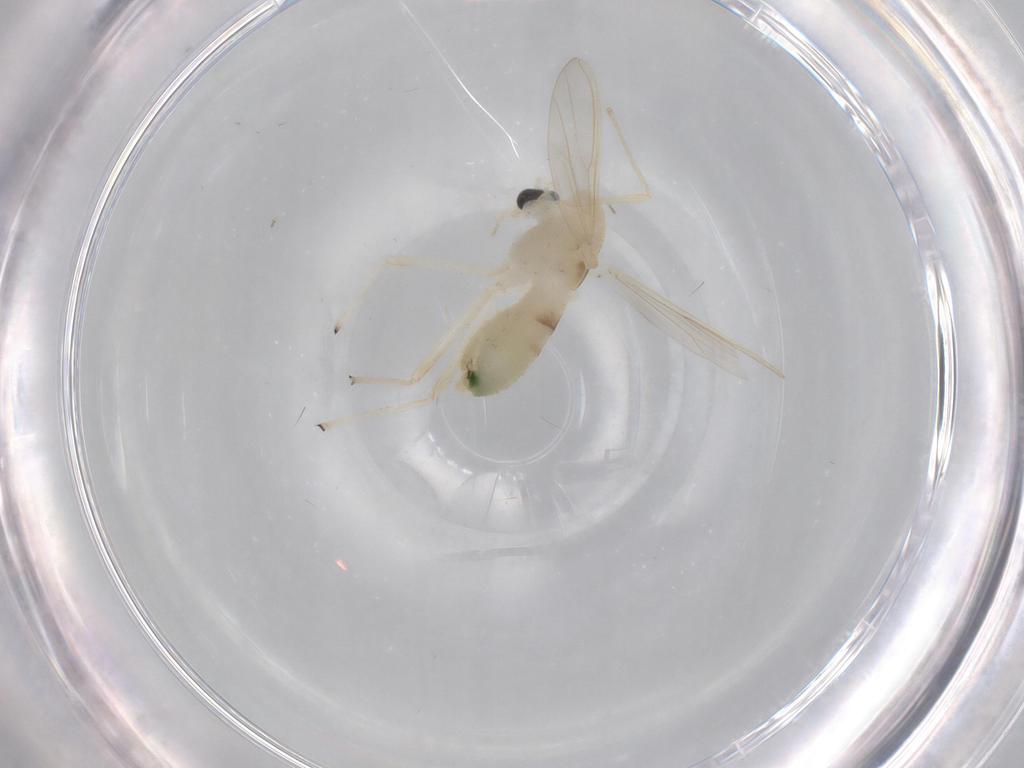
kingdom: Animalia
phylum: Arthropoda
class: Insecta
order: Diptera
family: Chironomidae
